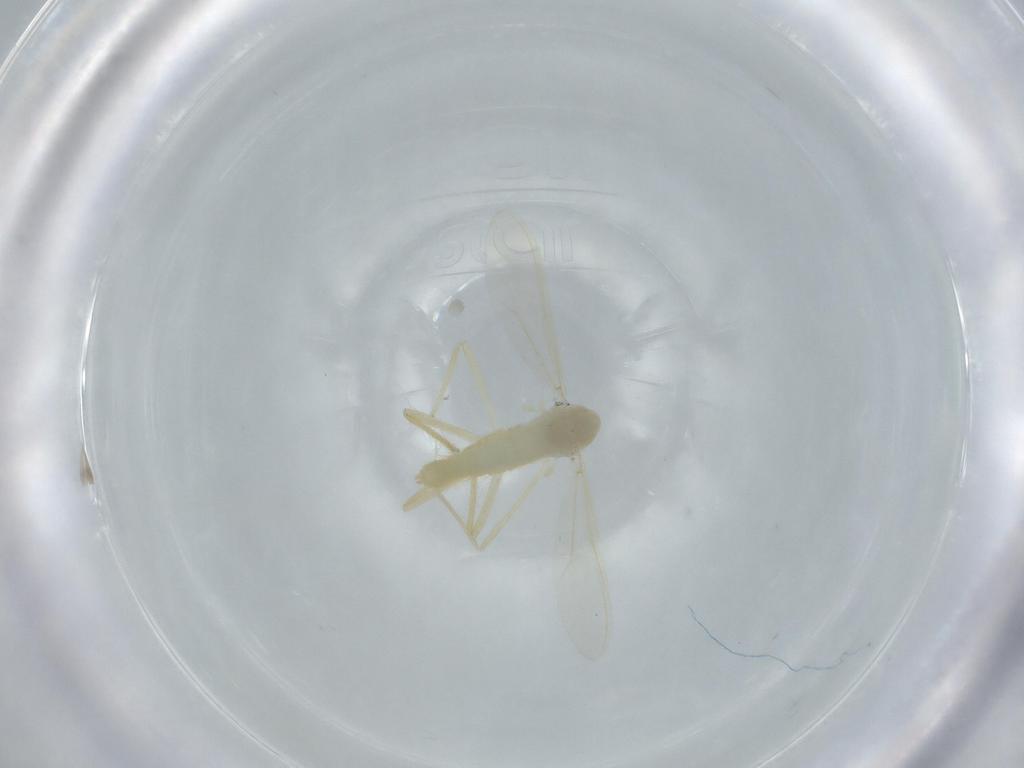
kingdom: Animalia
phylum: Arthropoda
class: Insecta
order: Diptera
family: Chironomidae
